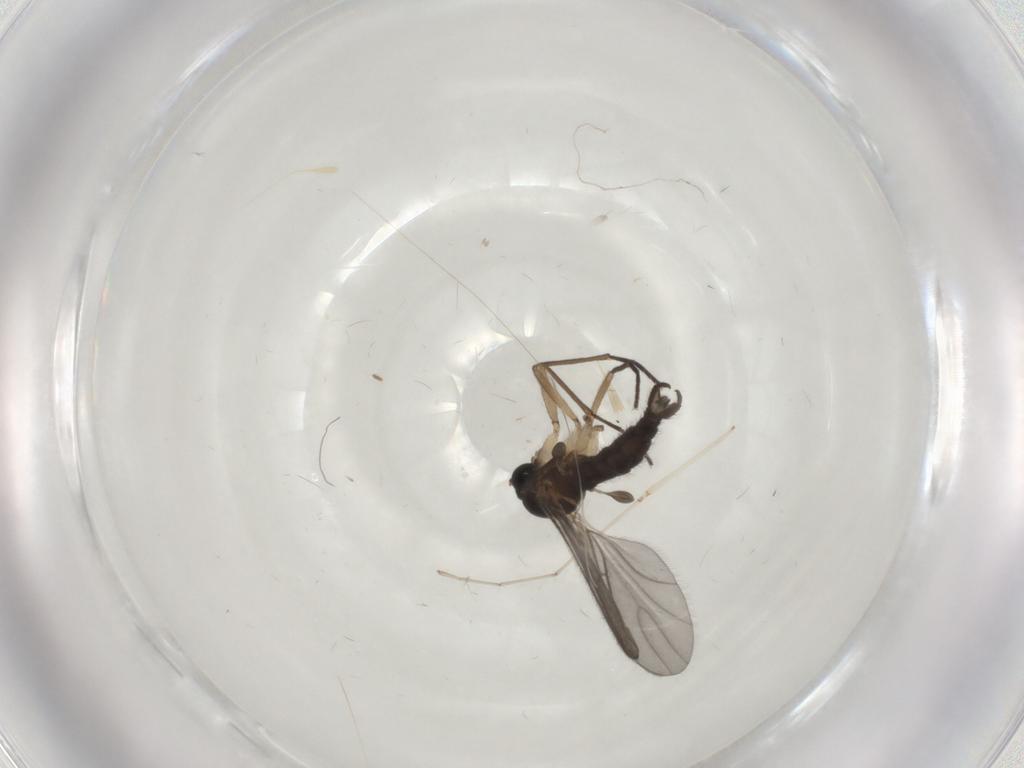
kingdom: Animalia
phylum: Arthropoda
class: Insecta
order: Diptera
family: Sciaridae
